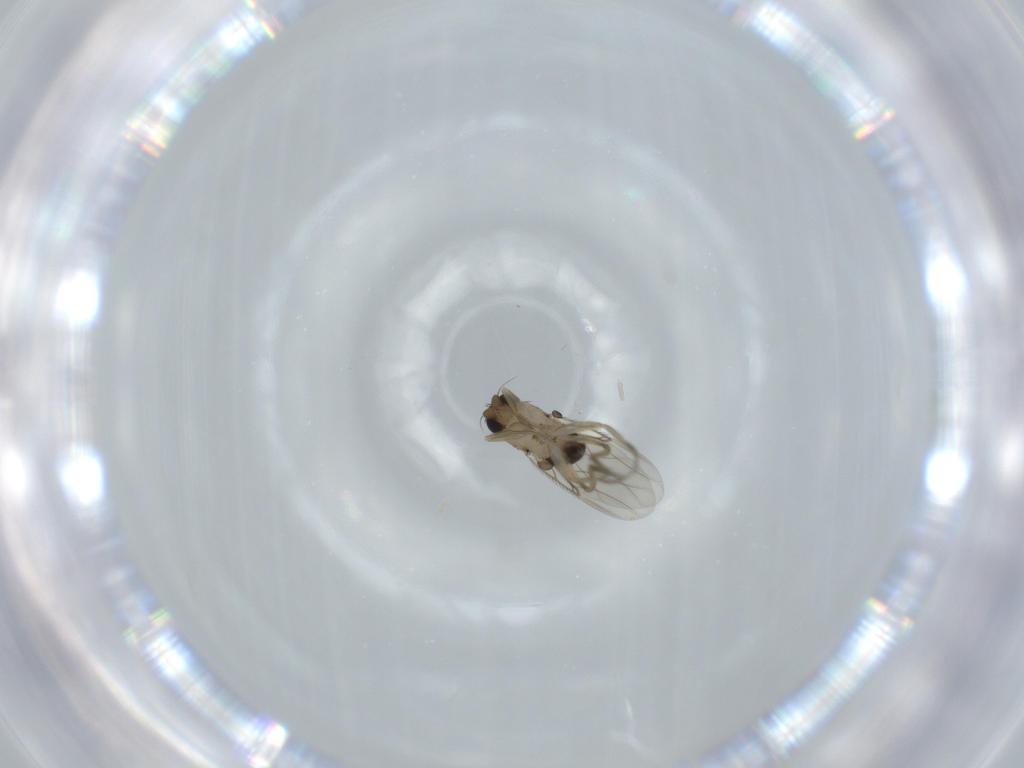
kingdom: Animalia
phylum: Arthropoda
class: Insecta
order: Diptera
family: Phoridae
